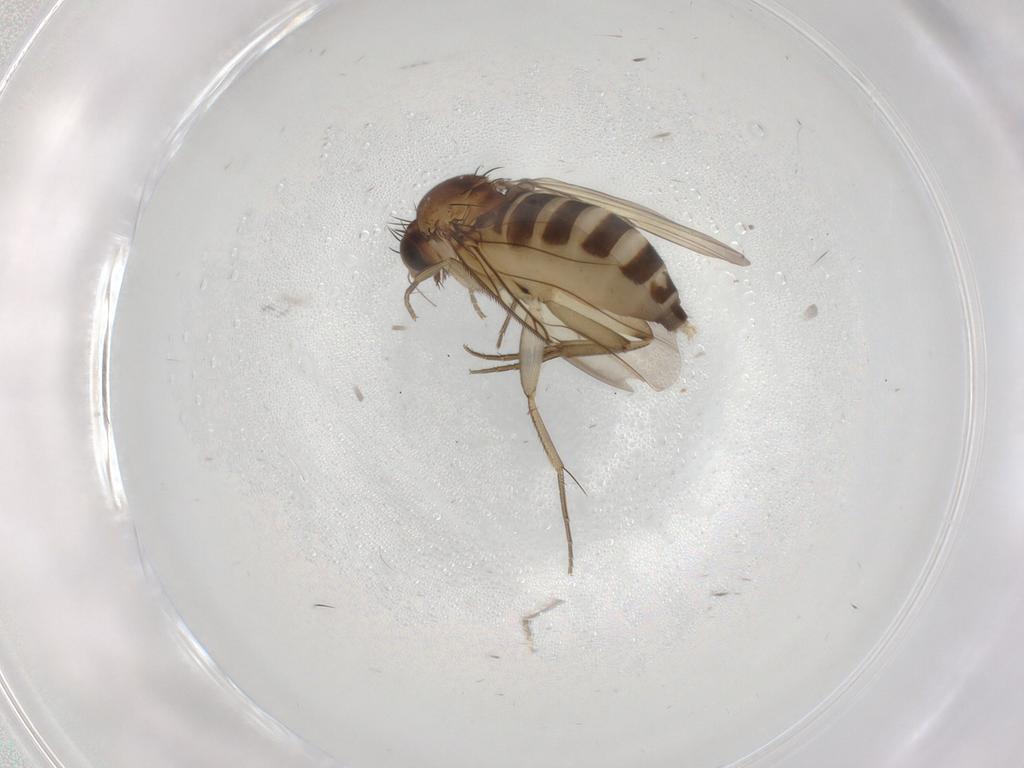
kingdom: Animalia
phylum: Arthropoda
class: Insecta
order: Diptera
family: Phoridae
